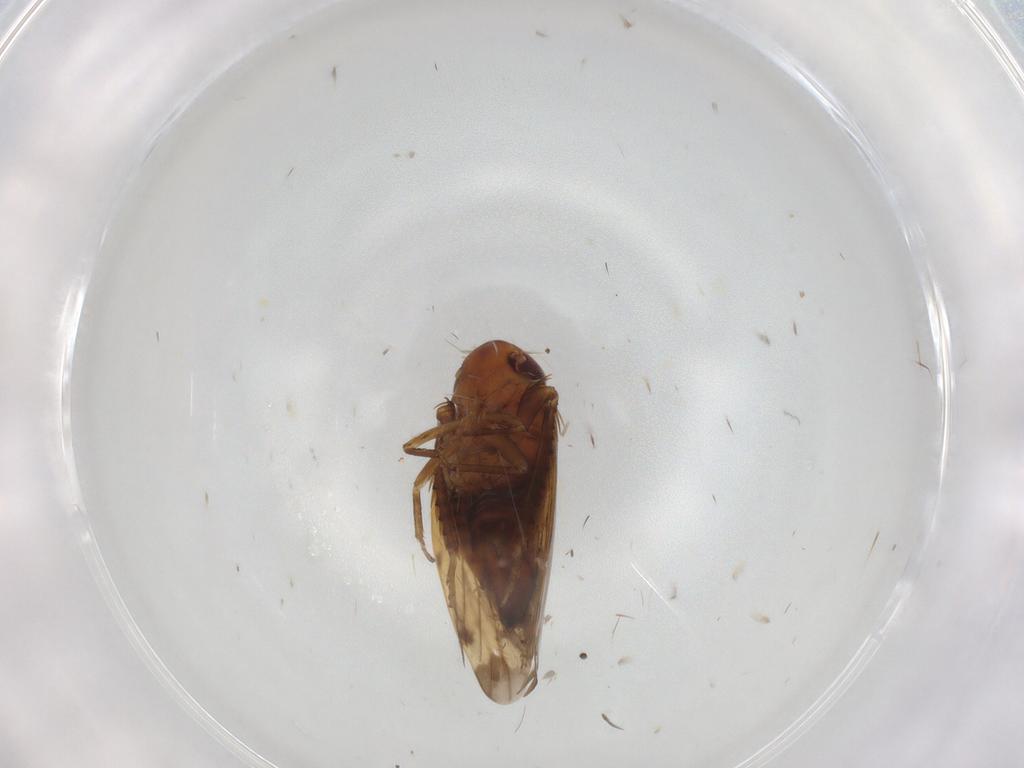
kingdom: Animalia
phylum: Arthropoda
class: Insecta
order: Hemiptera
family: Cicadellidae
